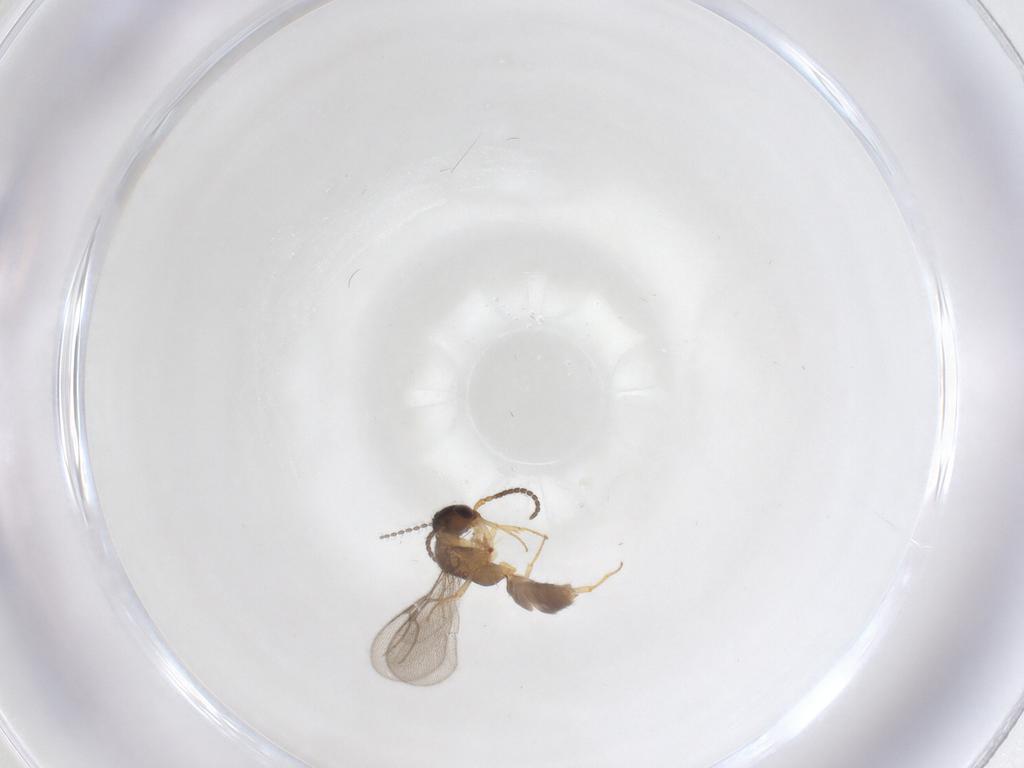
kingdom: Animalia
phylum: Arthropoda
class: Insecta
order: Hymenoptera
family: Bethylidae
